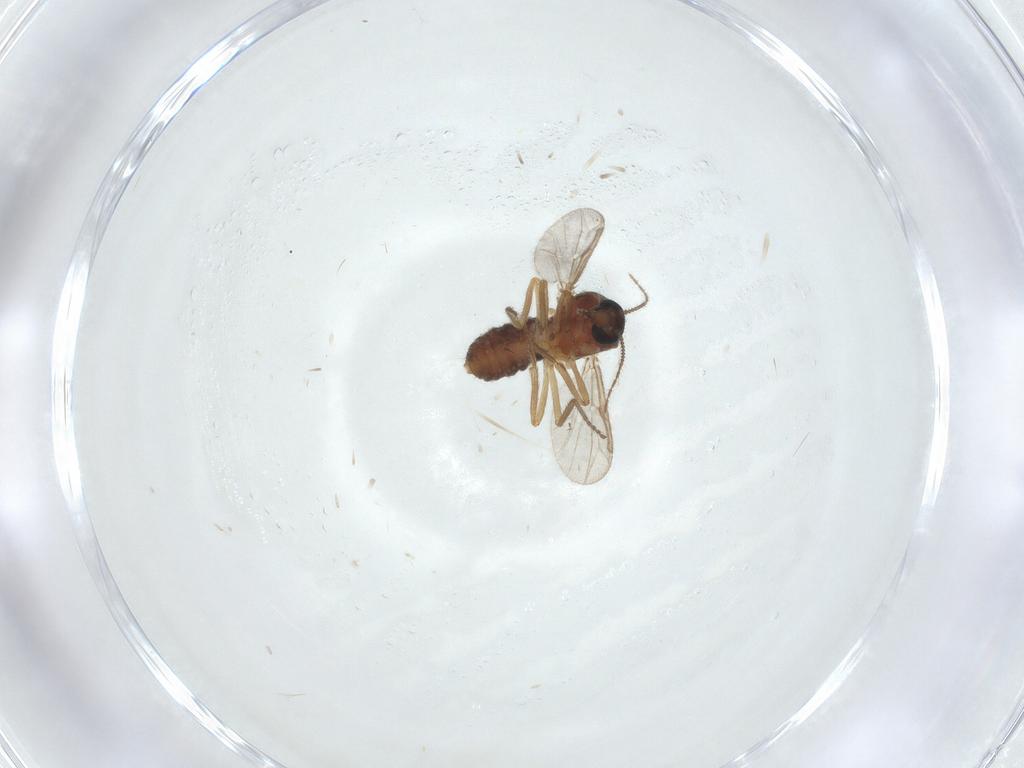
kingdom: Animalia
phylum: Arthropoda
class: Insecta
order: Diptera
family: Ceratopogonidae
